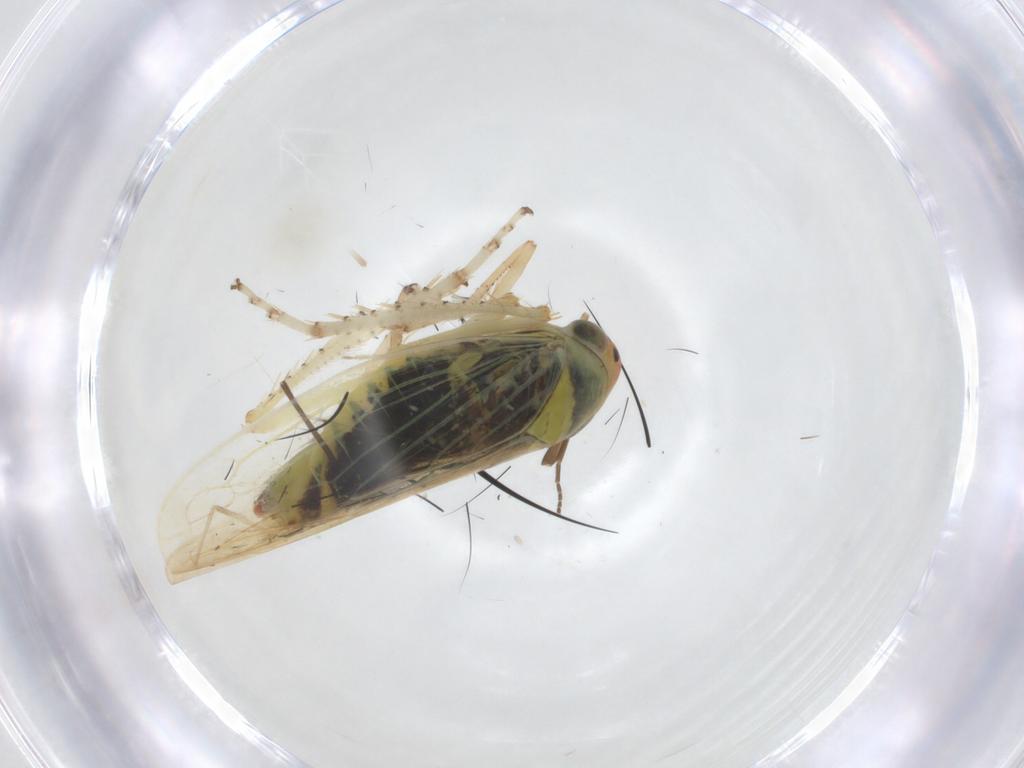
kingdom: Animalia
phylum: Arthropoda
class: Insecta
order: Hemiptera
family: Cicadellidae
